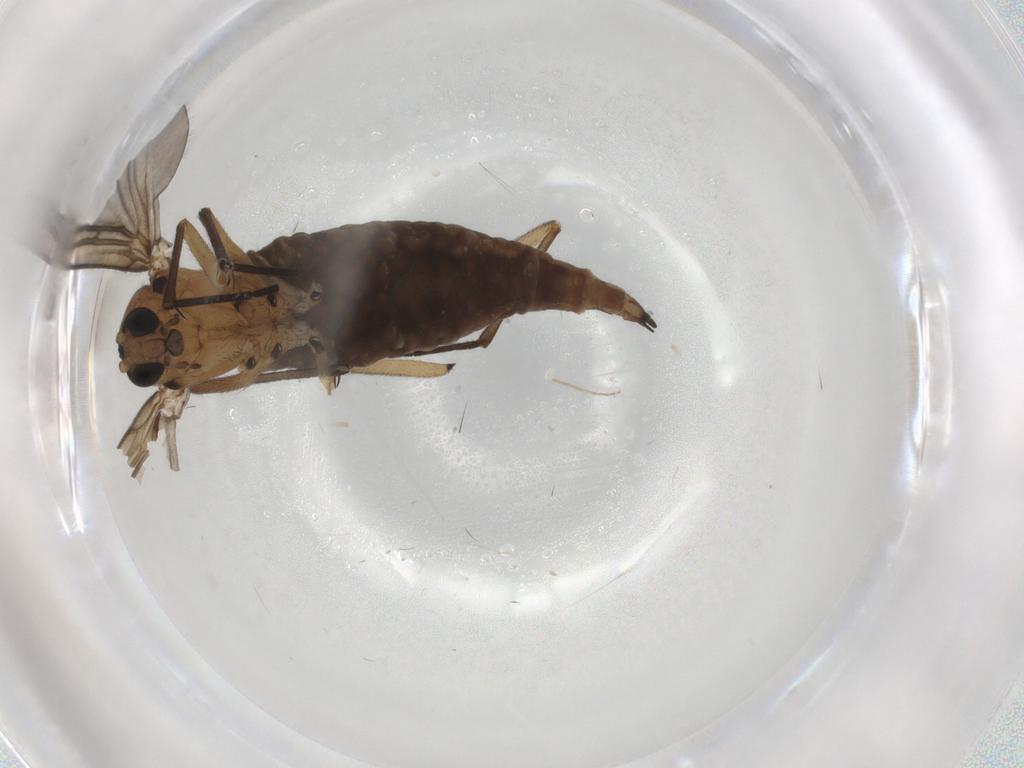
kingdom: Animalia
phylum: Arthropoda
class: Insecta
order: Diptera
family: Sciaridae
